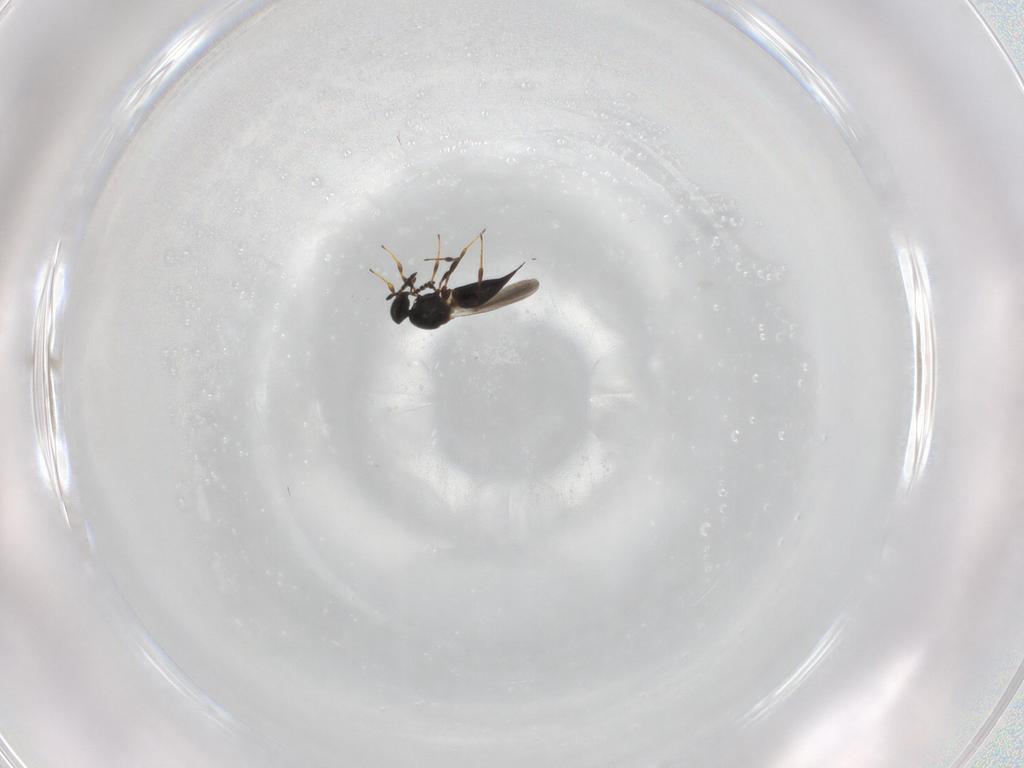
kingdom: Animalia
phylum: Arthropoda
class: Insecta
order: Hymenoptera
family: Platygastridae
